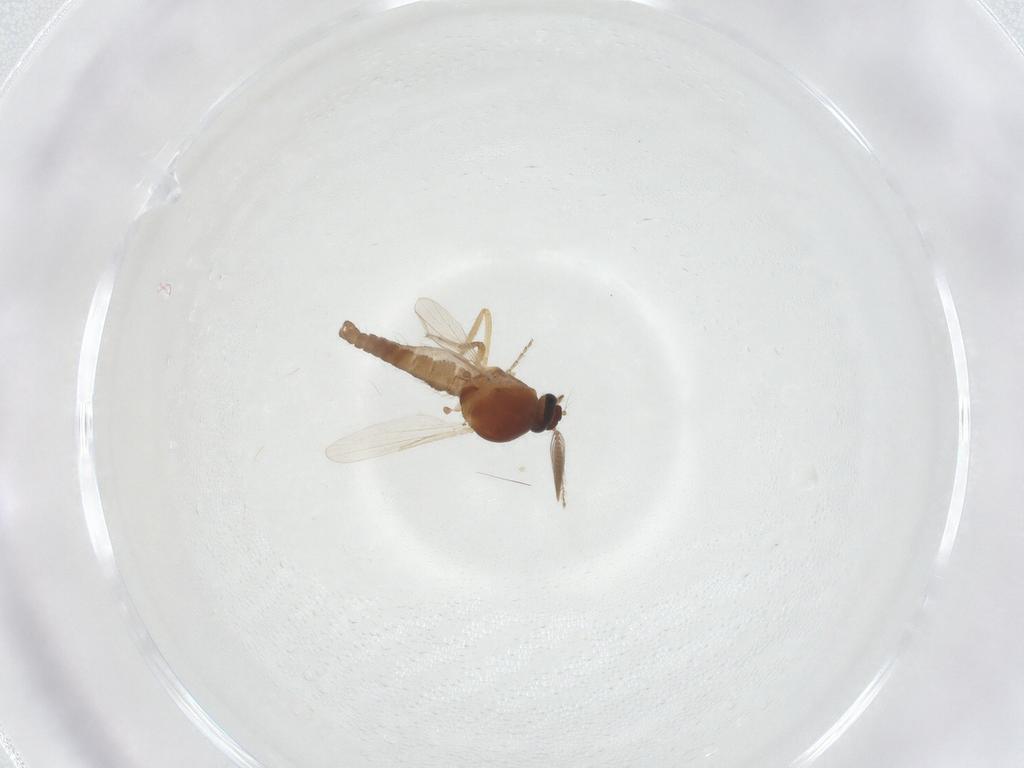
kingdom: Animalia
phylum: Arthropoda
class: Insecta
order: Diptera
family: Ceratopogonidae
